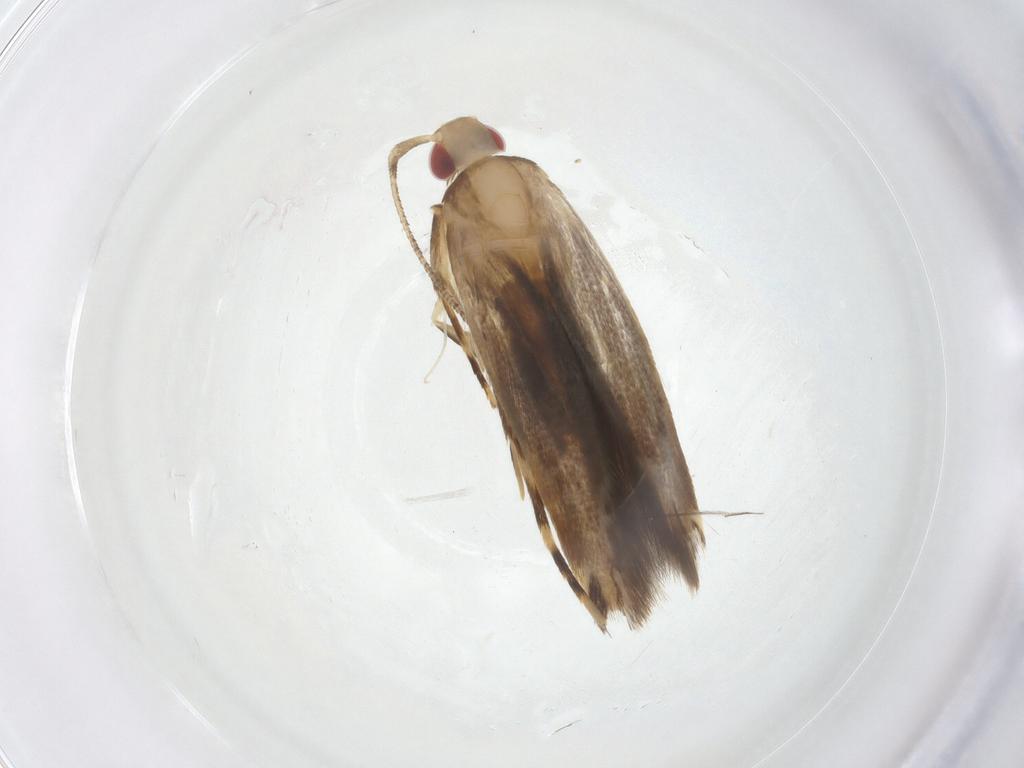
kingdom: Animalia
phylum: Arthropoda
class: Insecta
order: Lepidoptera
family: Cosmopterigidae
